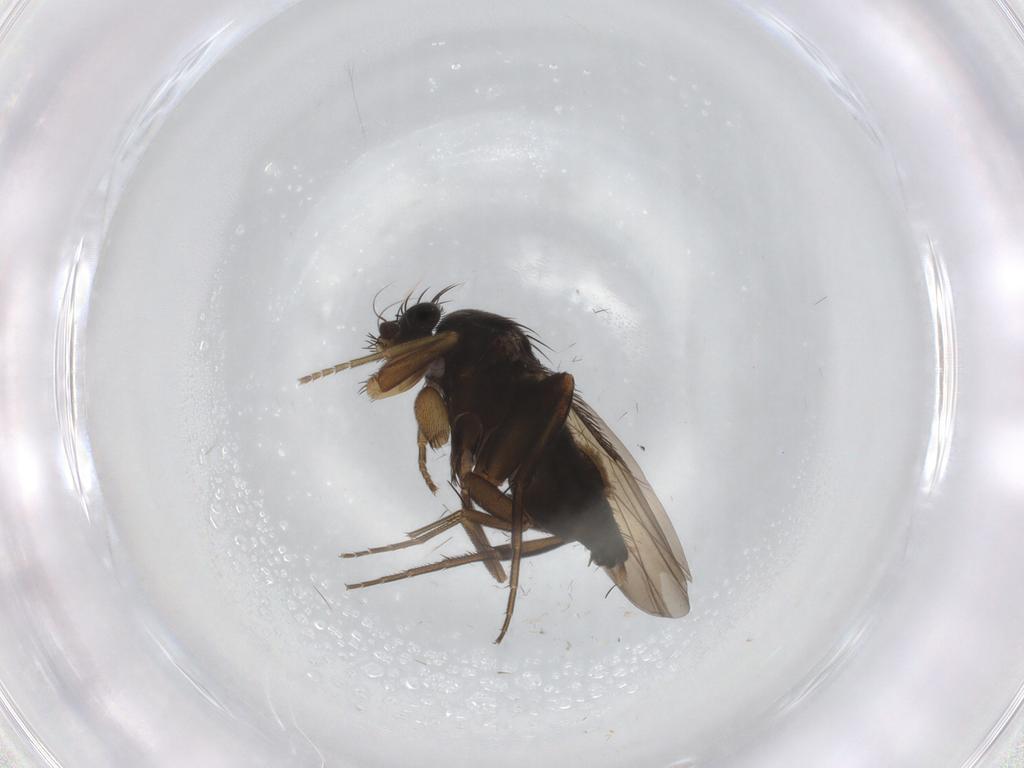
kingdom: Animalia
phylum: Arthropoda
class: Insecta
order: Diptera
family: Phoridae
